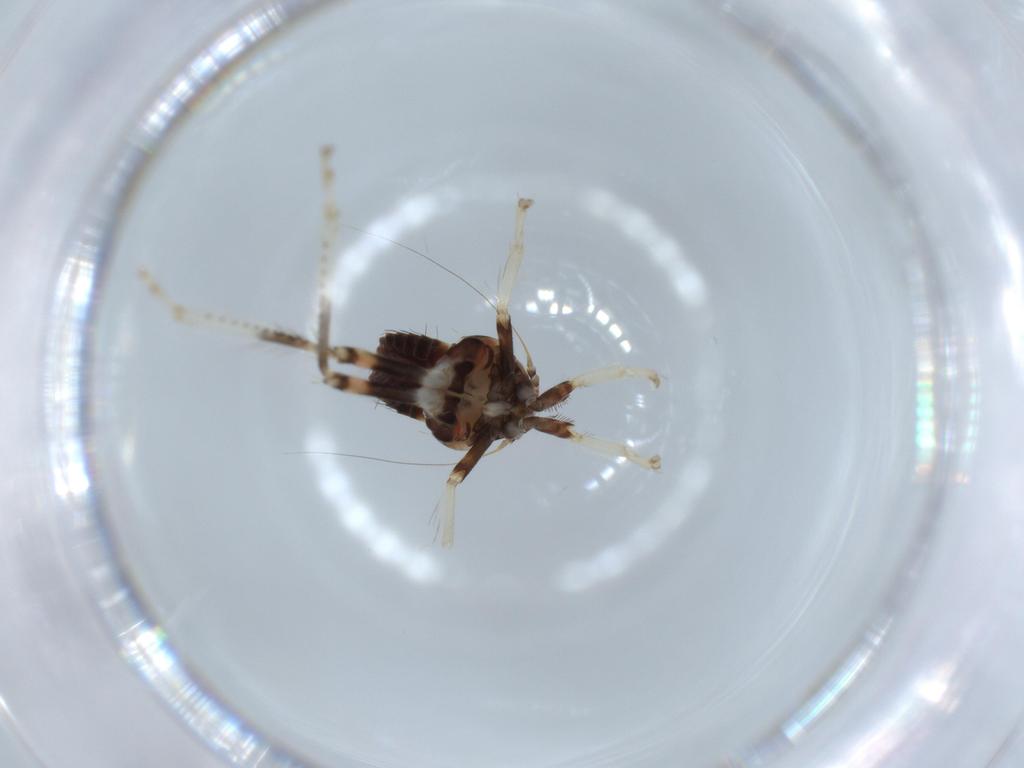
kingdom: Animalia
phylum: Arthropoda
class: Insecta
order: Hemiptera
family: Cicadellidae
